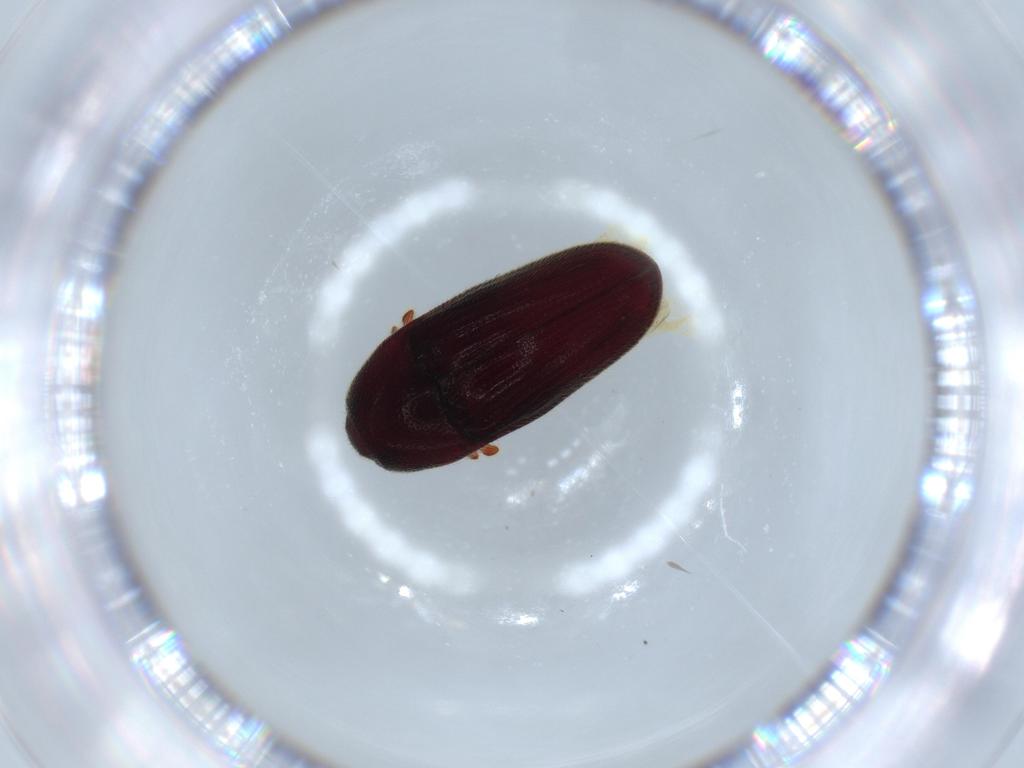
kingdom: Animalia
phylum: Arthropoda
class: Insecta
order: Coleoptera
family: Throscidae
